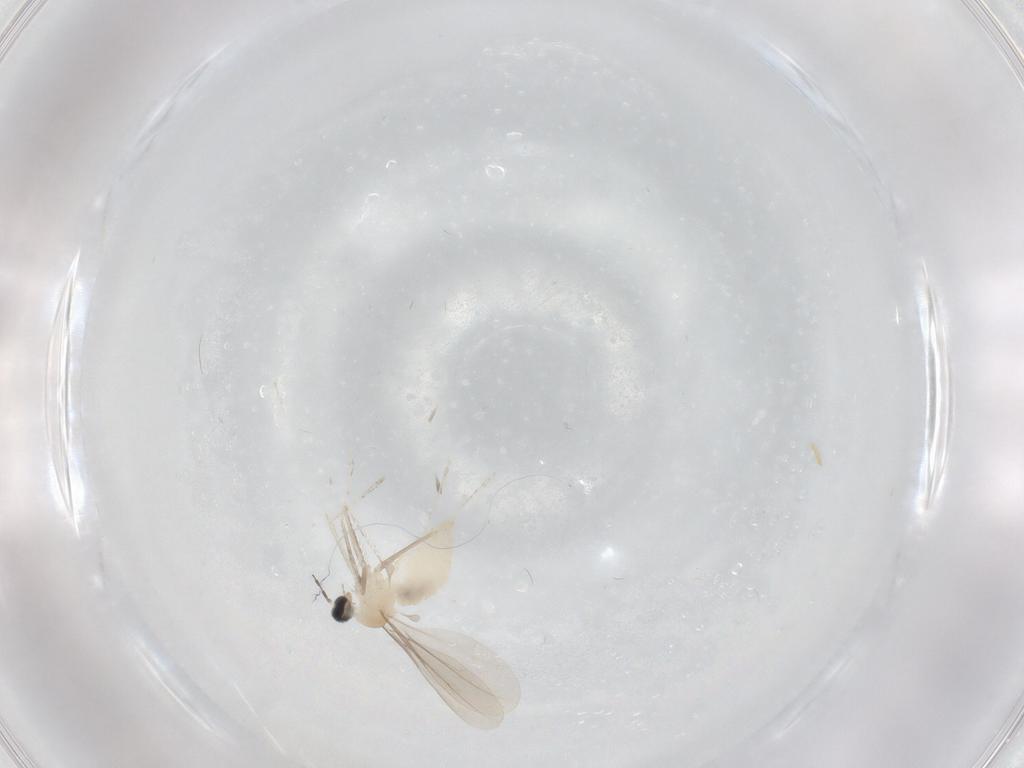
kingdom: Animalia
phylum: Arthropoda
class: Insecta
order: Diptera
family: Cecidomyiidae
